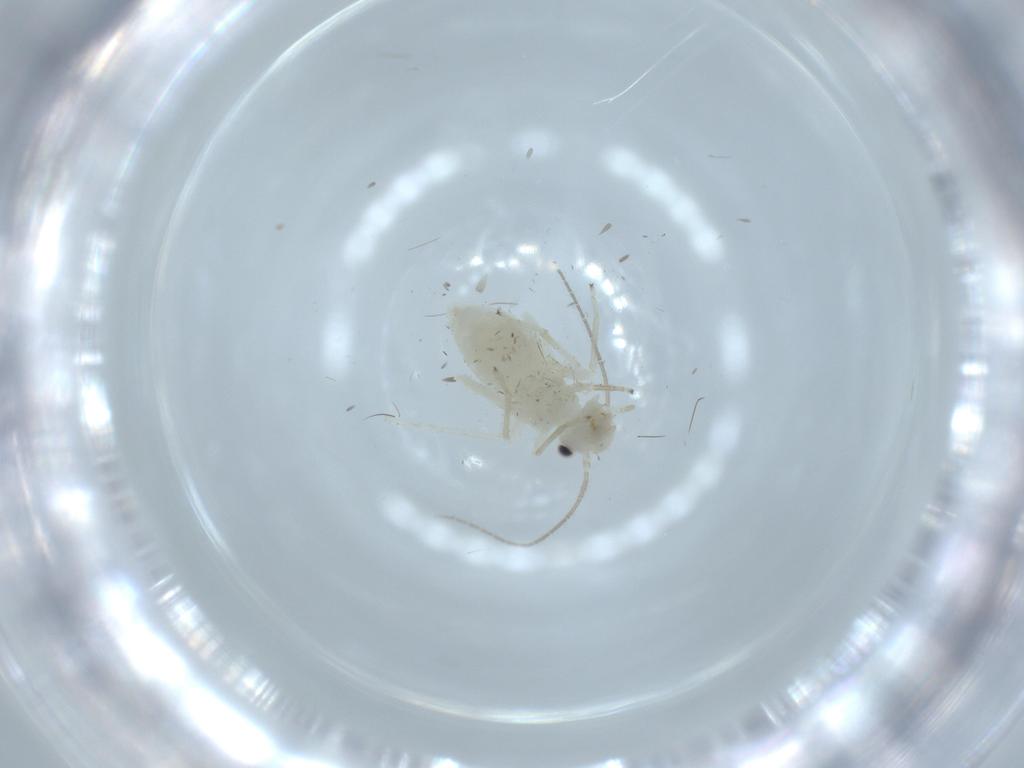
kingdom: Animalia
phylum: Arthropoda
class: Insecta
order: Psocodea
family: Caeciliusidae
